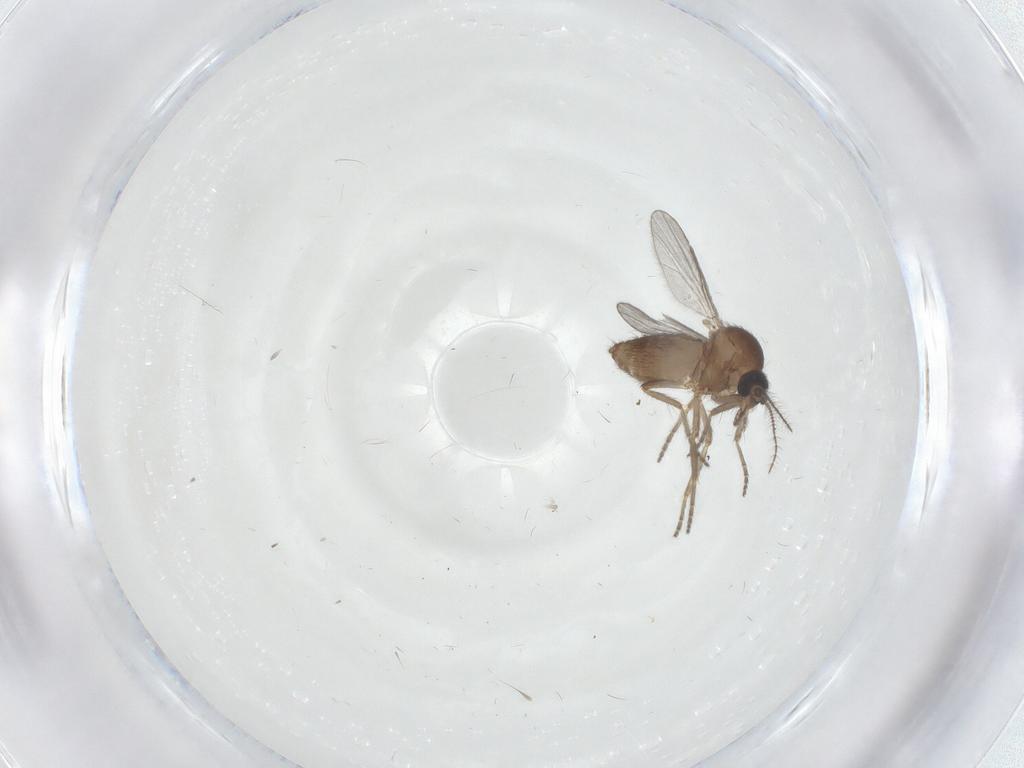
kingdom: Animalia
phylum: Arthropoda
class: Insecta
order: Diptera
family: Ceratopogonidae
